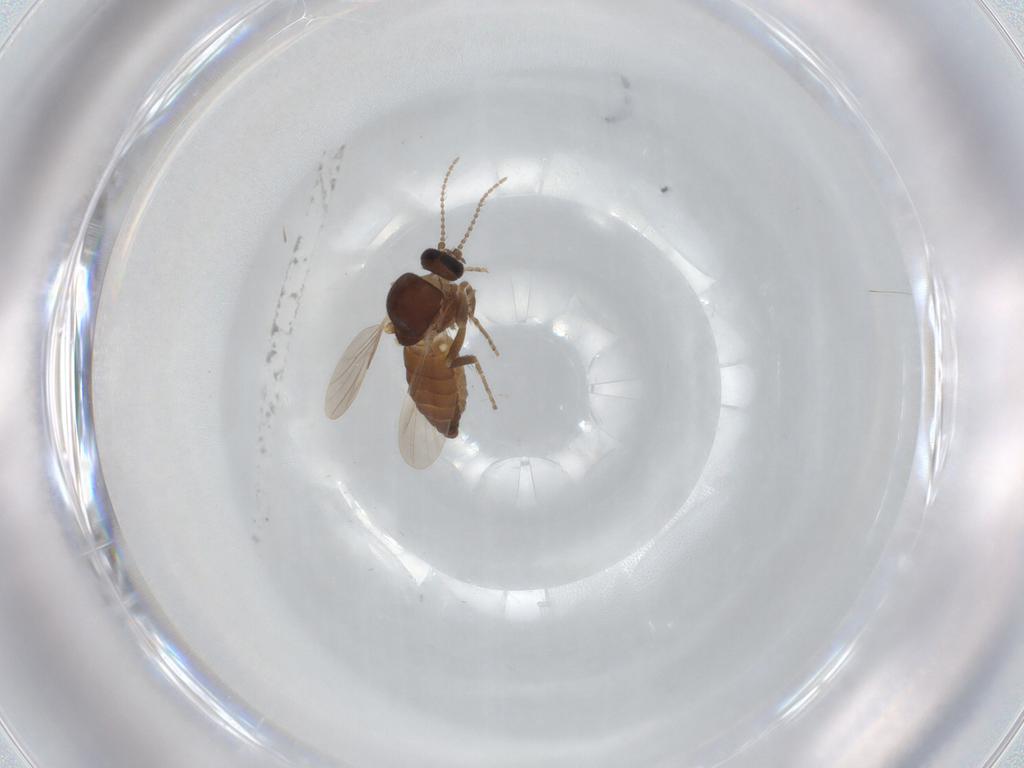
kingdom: Animalia
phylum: Arthropoda
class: Insecta
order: Diptera
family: Ceratopogonidae
